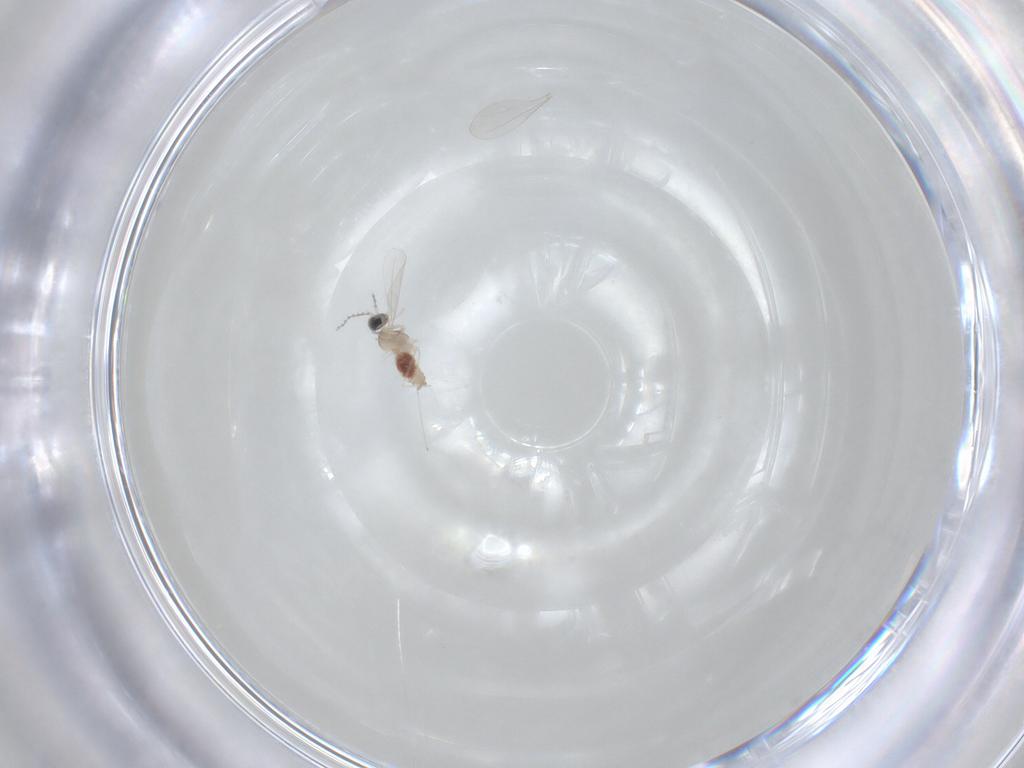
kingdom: Animalia
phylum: Arthropoda
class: Insecta
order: Diptera
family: Cecidomyiidae
